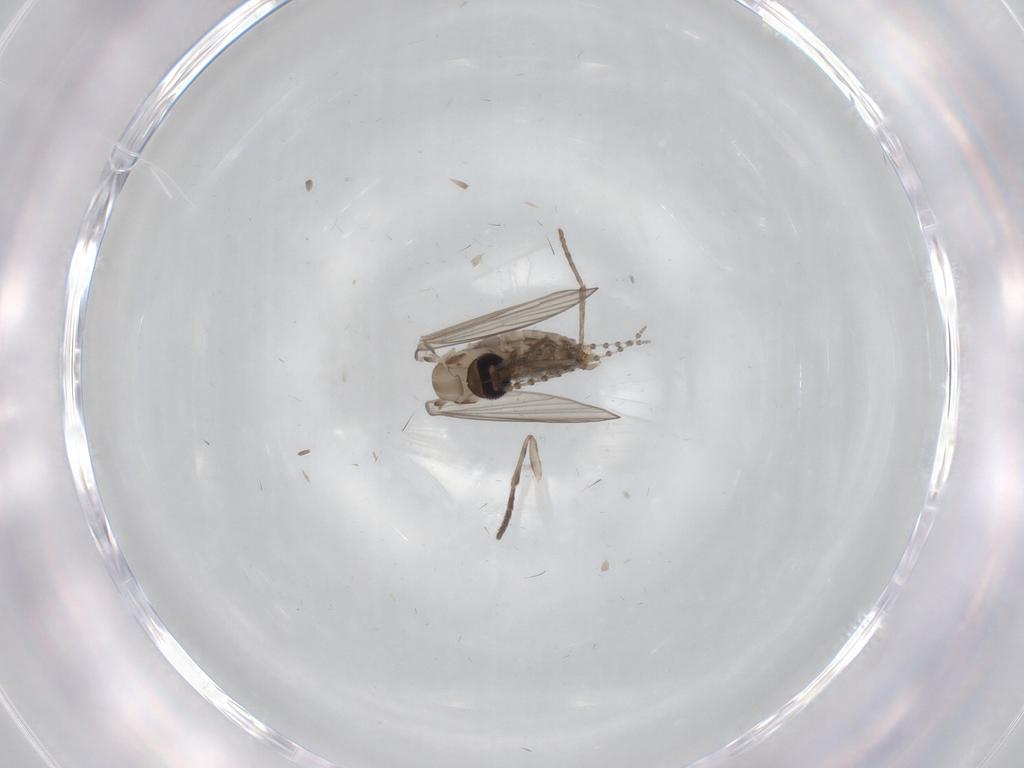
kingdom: Animalia
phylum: Arthropoda
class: Insecta
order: Diptera
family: Psychodidae
